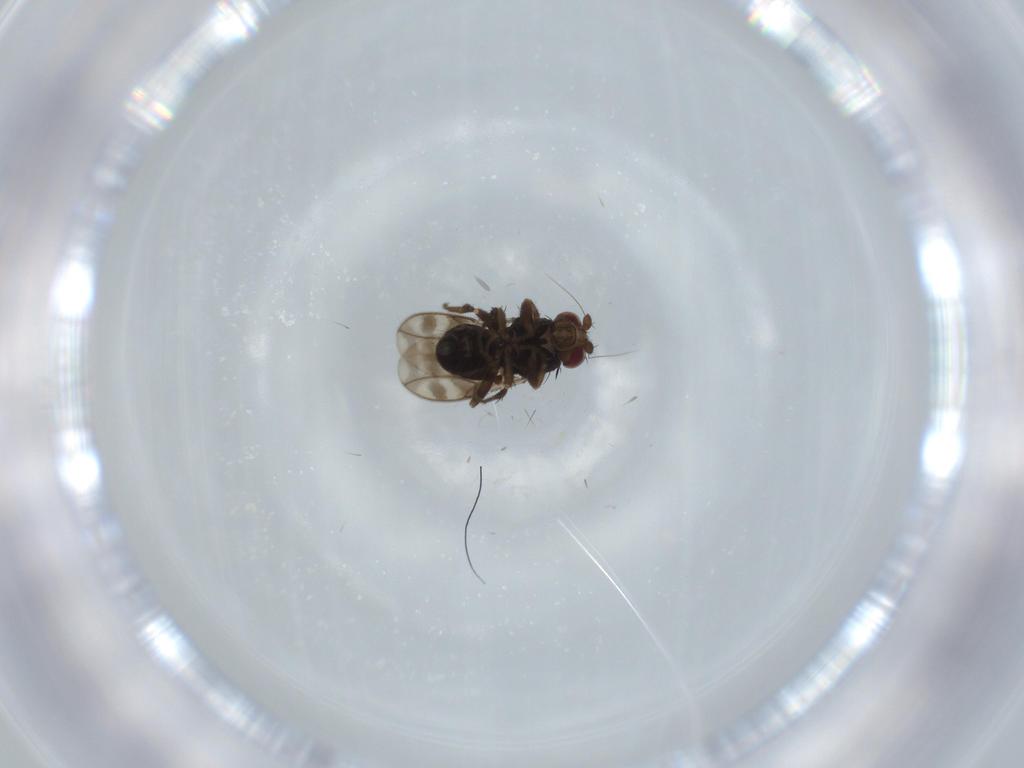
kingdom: Animalia
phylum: Arthropoda
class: Insecta
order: Diptera
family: Sphaeroceridae
